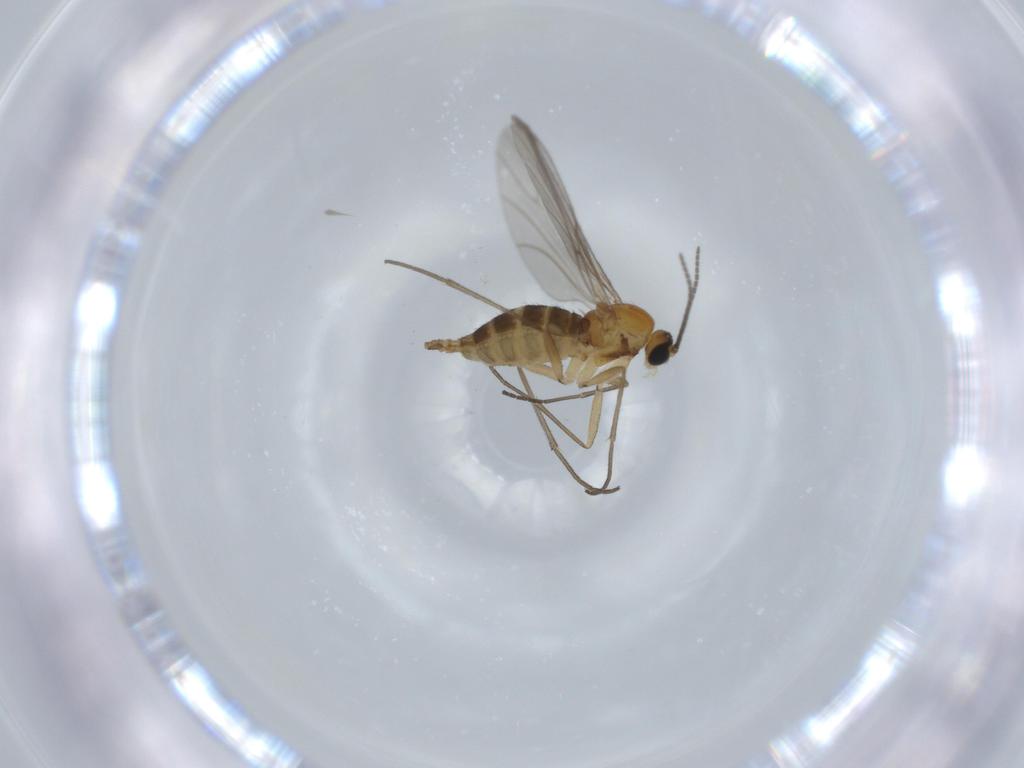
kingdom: Animalia
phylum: Arthropoda
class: Insecta
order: Diptera
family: Sciaridae
